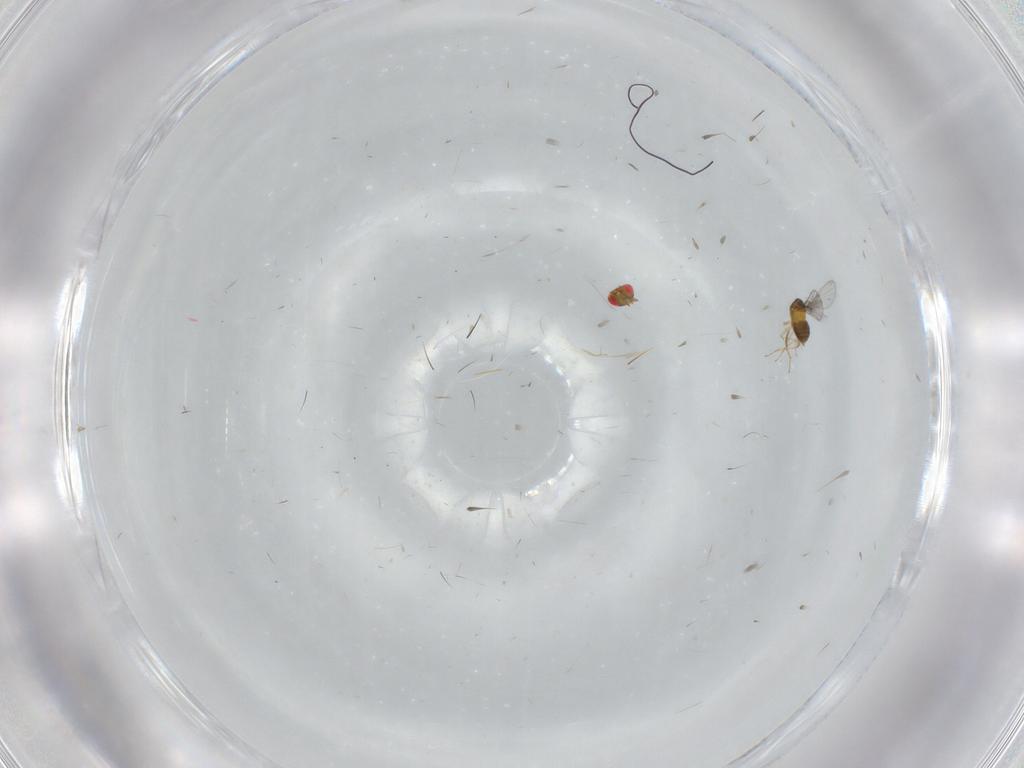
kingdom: Animalia
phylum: Arthropoda
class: Insecta
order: Hymenoptera
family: Trichogrammatidae
